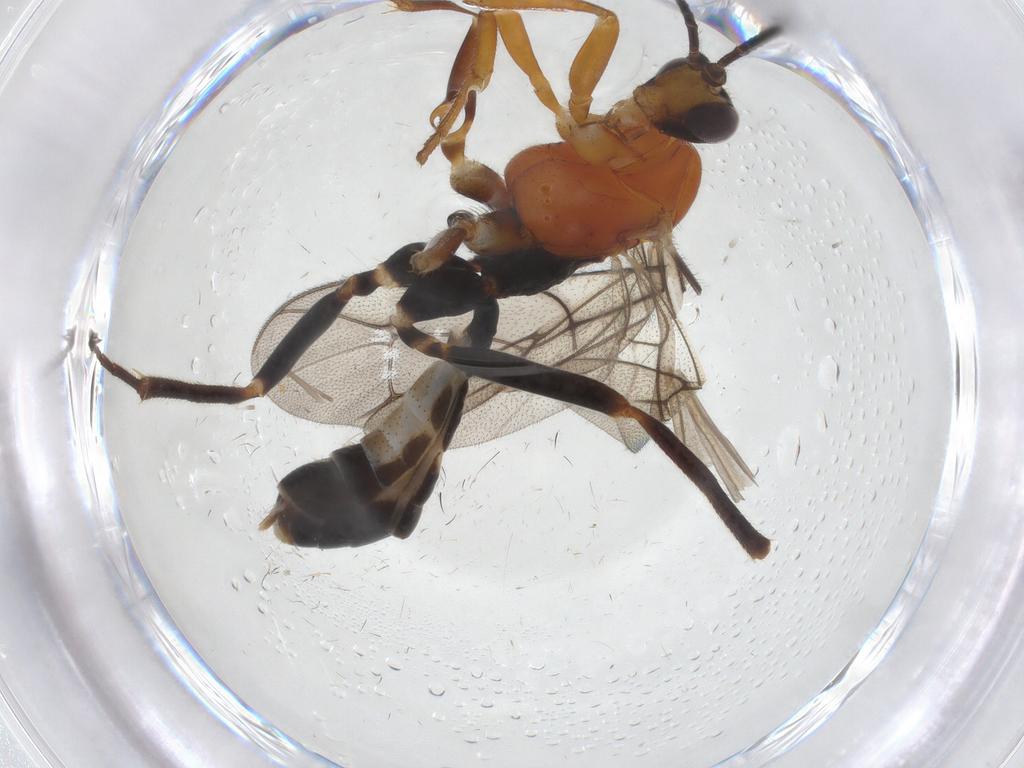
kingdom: Animalia
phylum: Arthropoda
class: Insecta
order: Hymenoptera
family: Ichneumonidae
